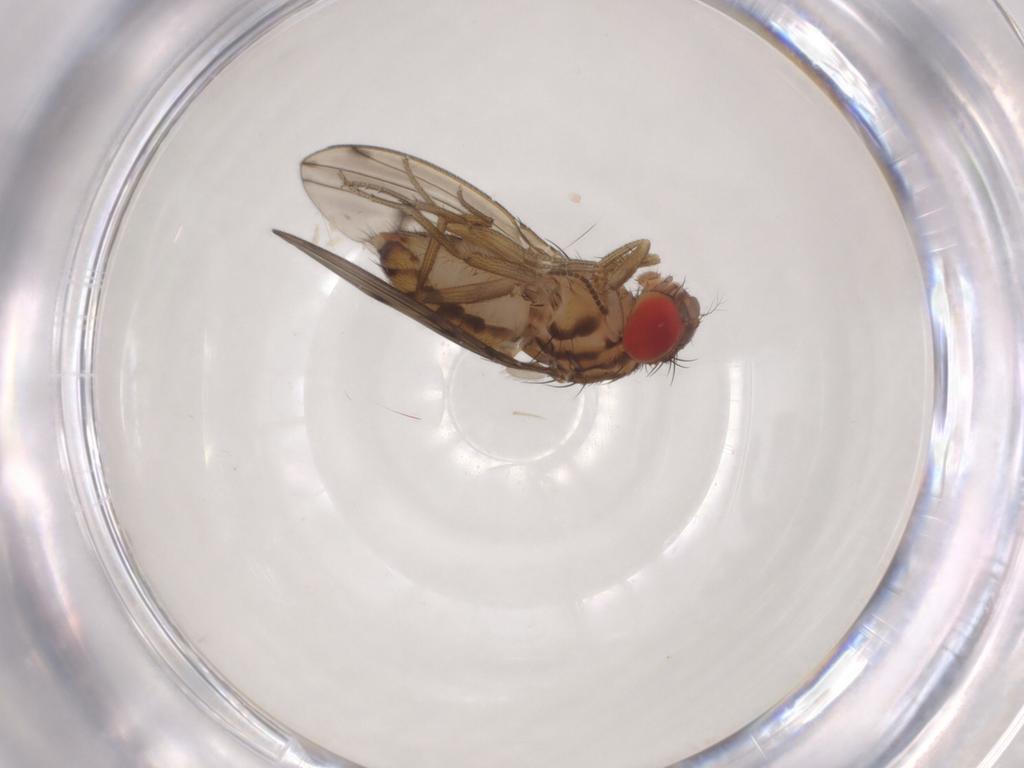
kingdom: Animalia
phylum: Arthropoda
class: Insecta
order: Diptera
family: Drosophilidae
